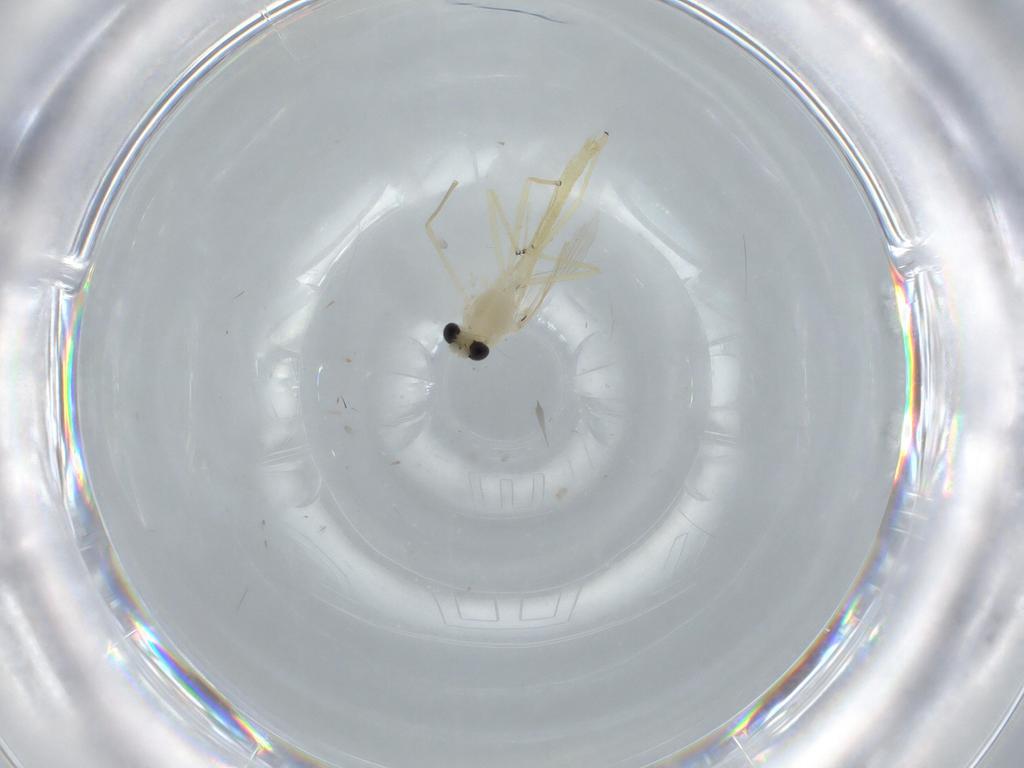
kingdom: Animalia
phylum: Arthropoda
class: Insecta
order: Diptera
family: Chironomidae
